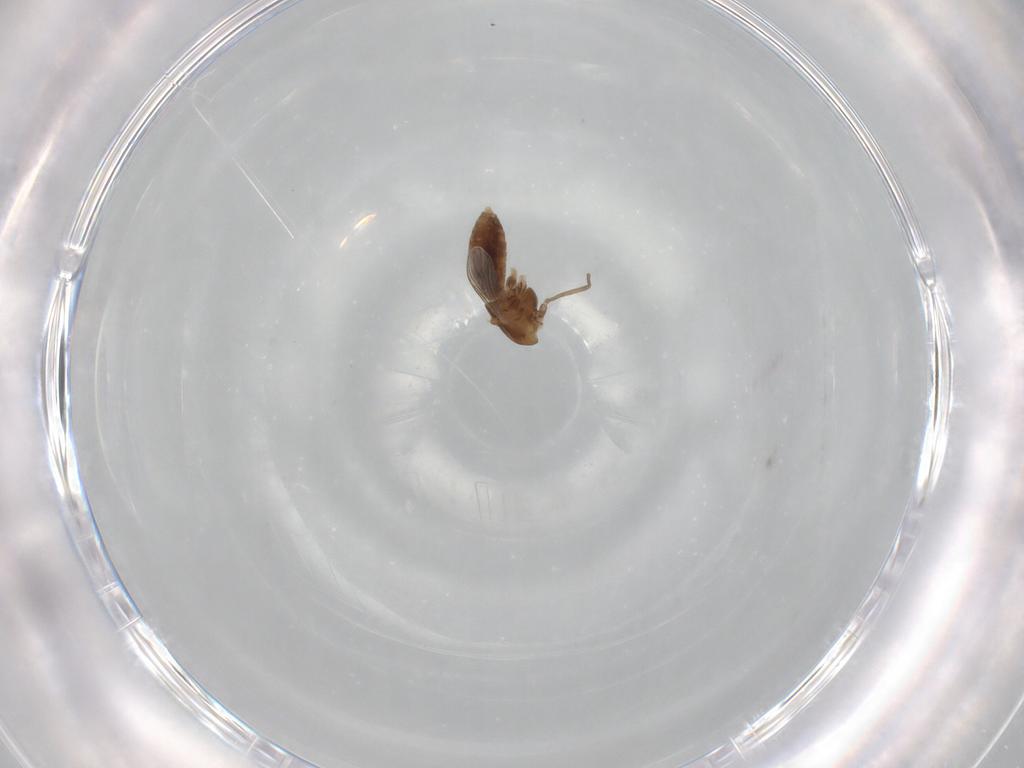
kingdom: Animalia
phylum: Arthropoda
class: Insecta
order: Diptera
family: Chironomidae
